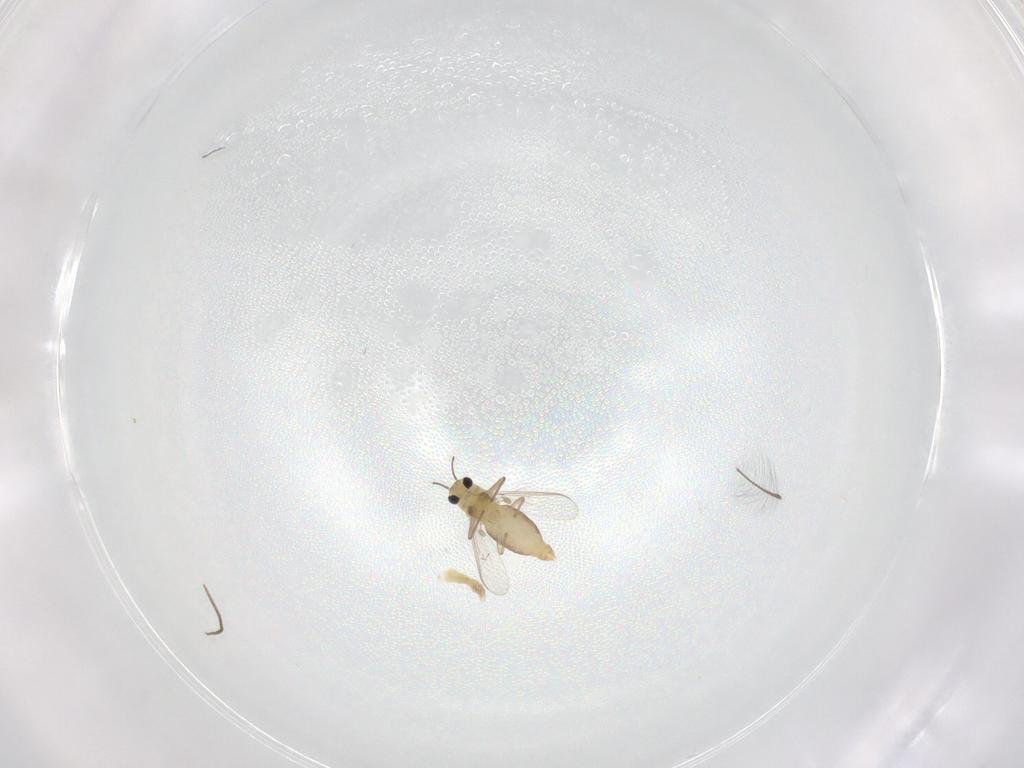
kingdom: Animalia
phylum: Arthropoda
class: Insecta
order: Diptera
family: Chironomidae
